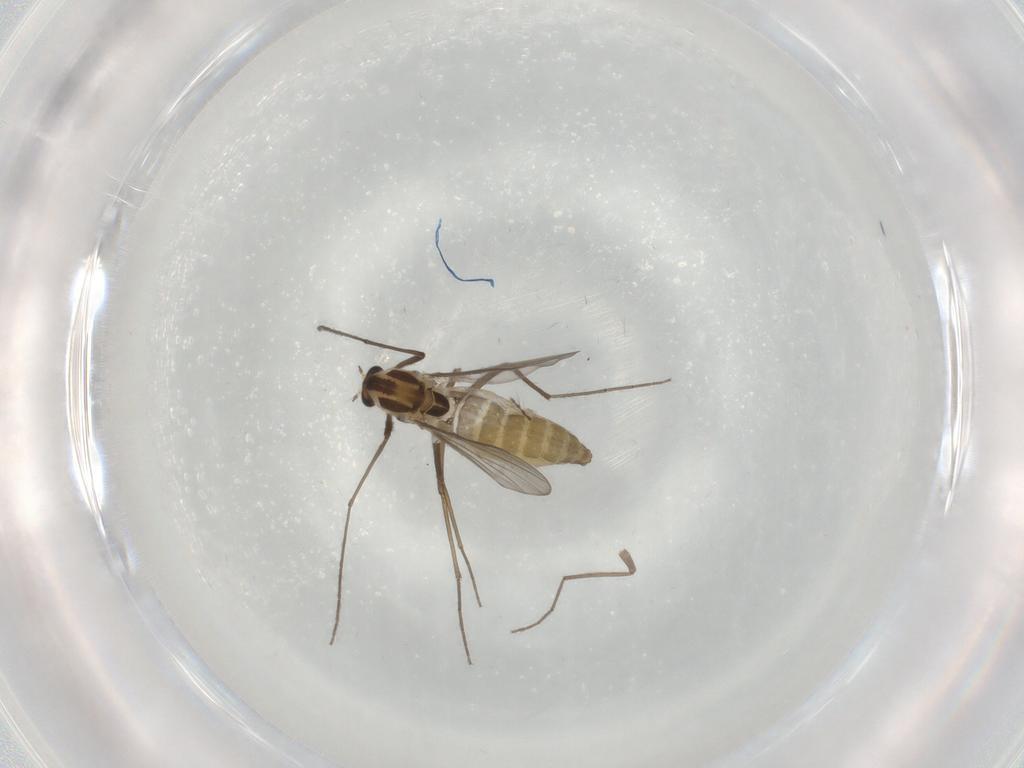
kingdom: Animalia
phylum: Arthropoda
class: Insecta
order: Diptera
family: Chironomidae
